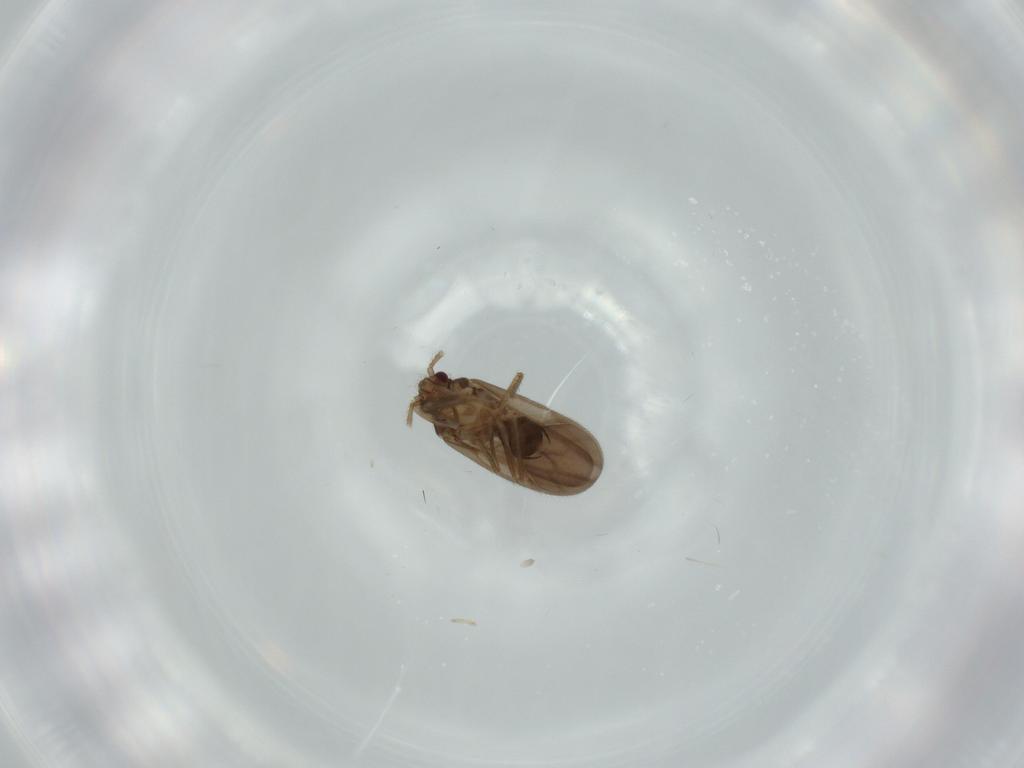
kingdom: Animalia
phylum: Arthropoda
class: Insecta
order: Hemiptera
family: Ceratocombidae
